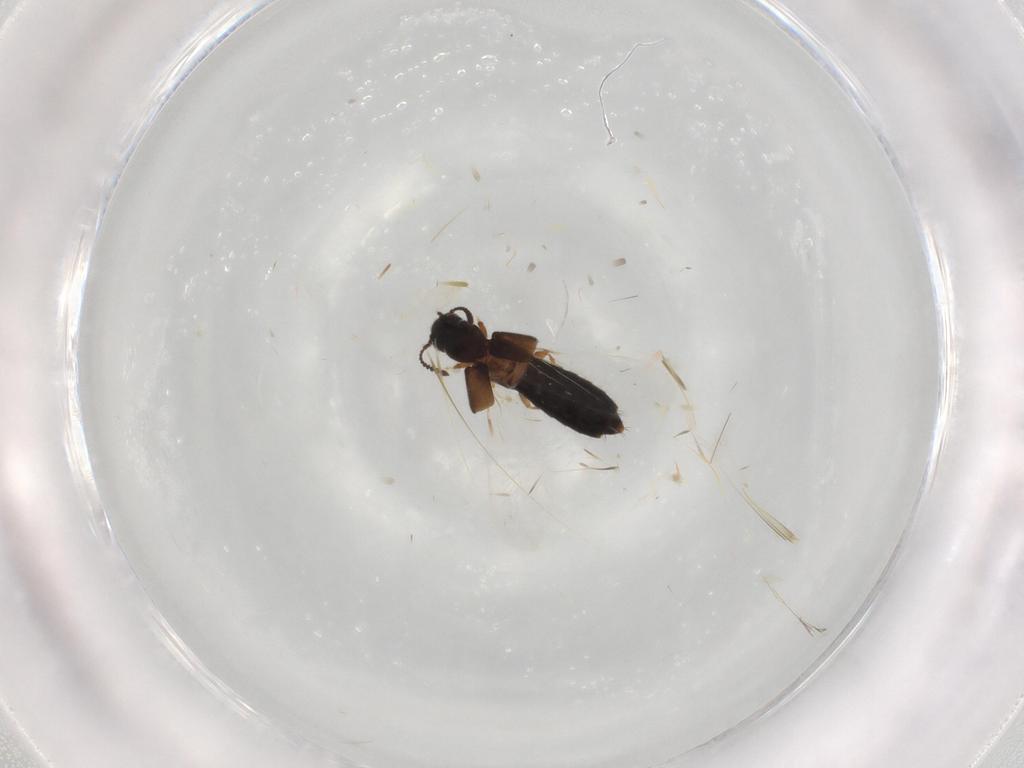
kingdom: Animalia
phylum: Arthropoda
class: Insecta
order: Coleoptera
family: Staphylinidae
